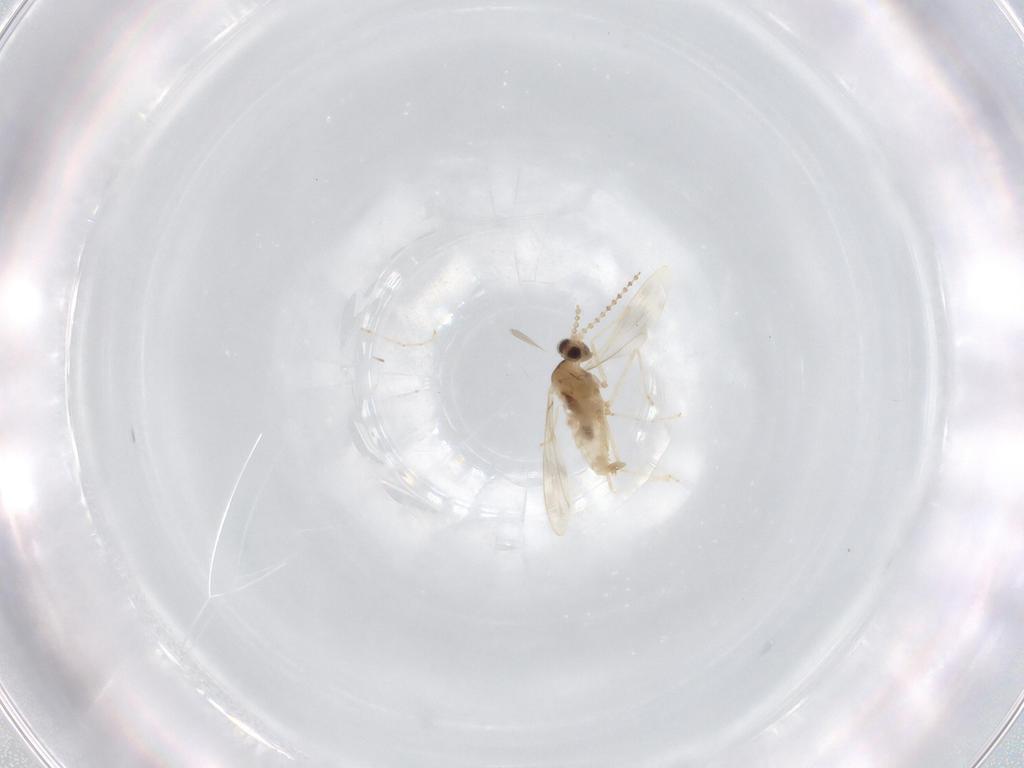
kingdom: Animalia
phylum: Arthropoda
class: Insecta
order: Diptera
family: Cecidomyiidae
